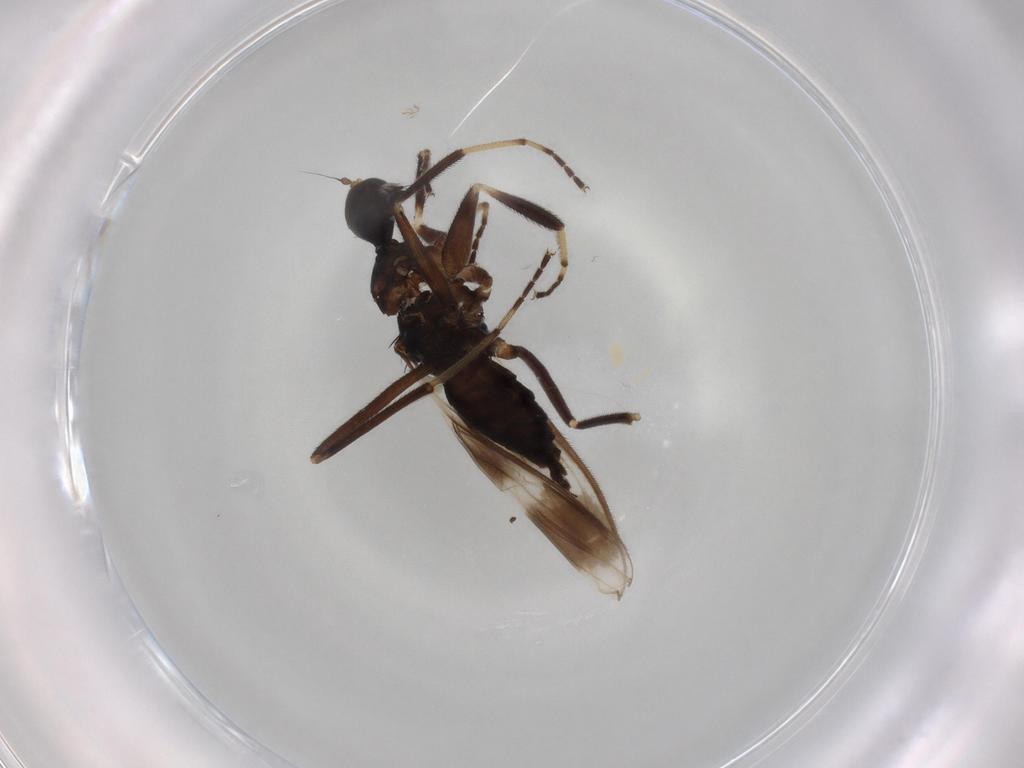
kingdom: Animalia
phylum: Arthropoda
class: Insecta
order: Diptera
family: Hybotidae
